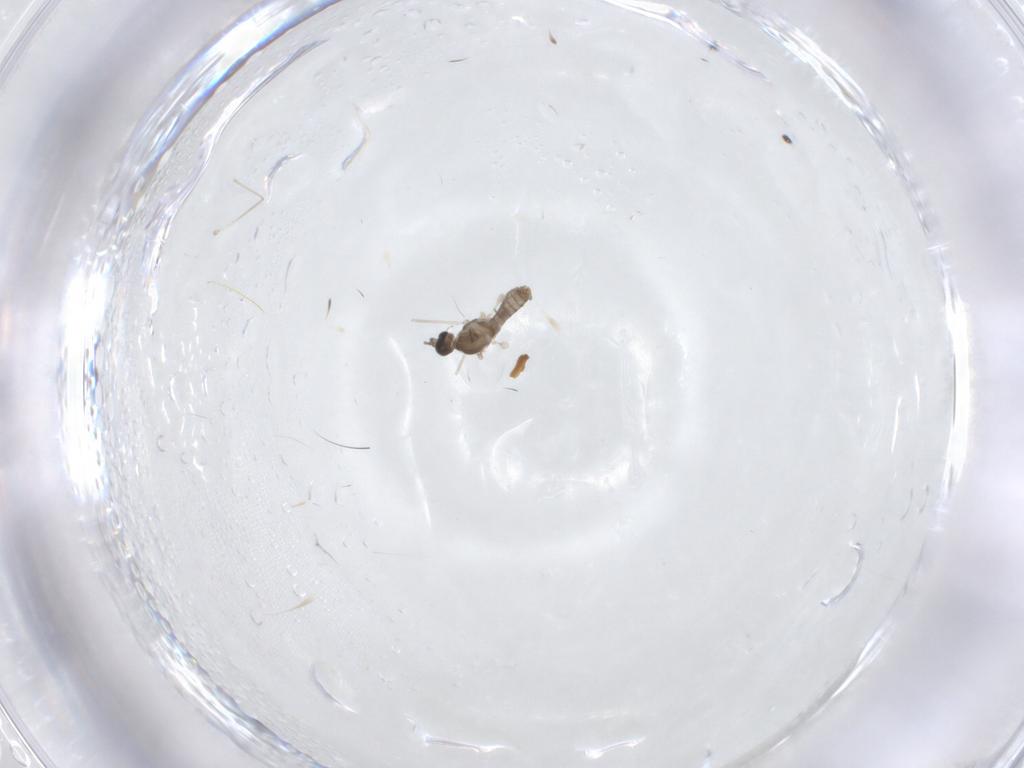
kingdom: Animalia
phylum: Arthropoda
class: Insecta
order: Diptera
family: Cecidomyiidae
